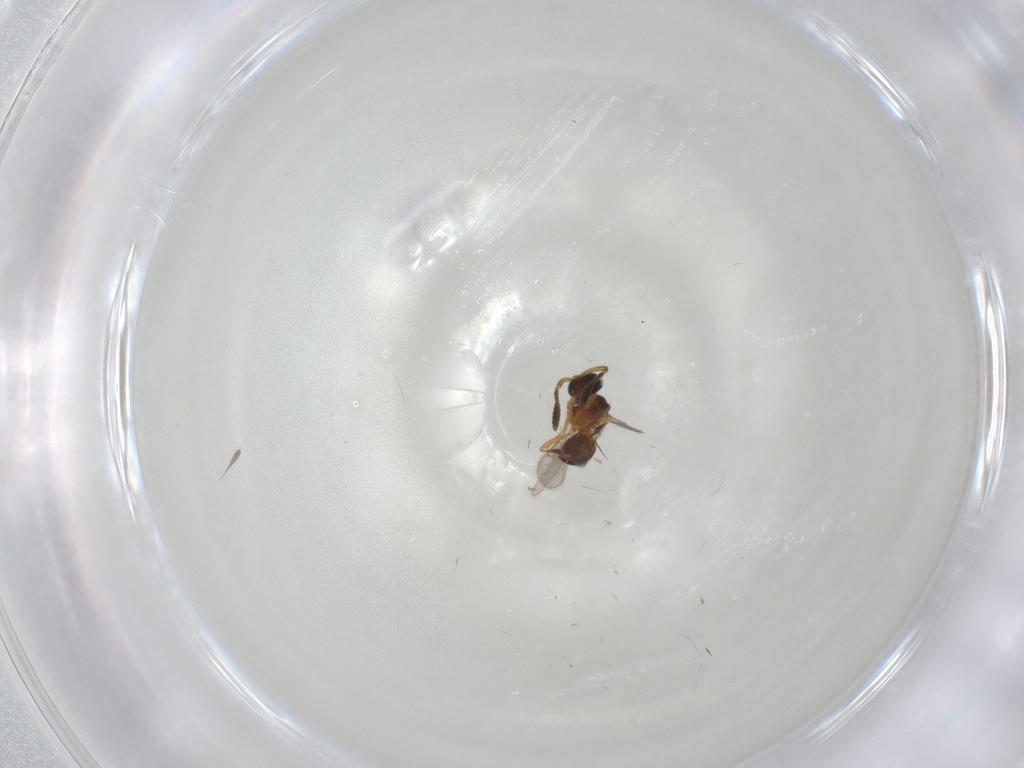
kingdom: Animalia
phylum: Arthropoda
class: Insecta
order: Hymenoptera
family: Scelionidae
